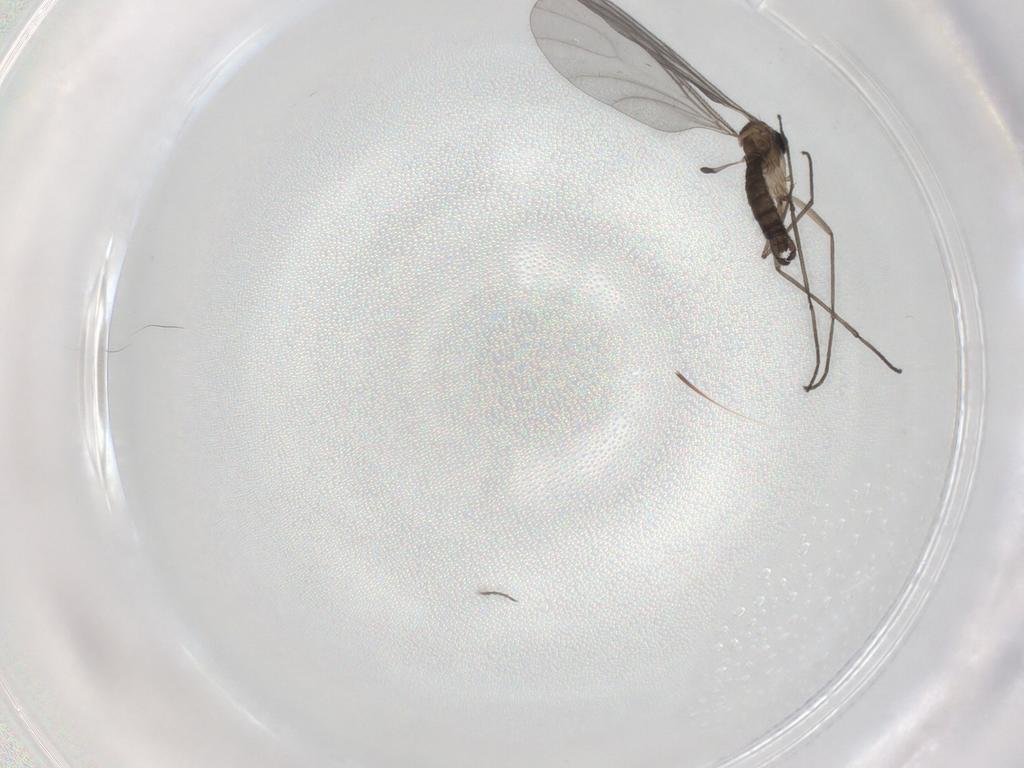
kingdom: Animalia
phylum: Arthropoda
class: Insecta
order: Diptera
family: Sciaridae
